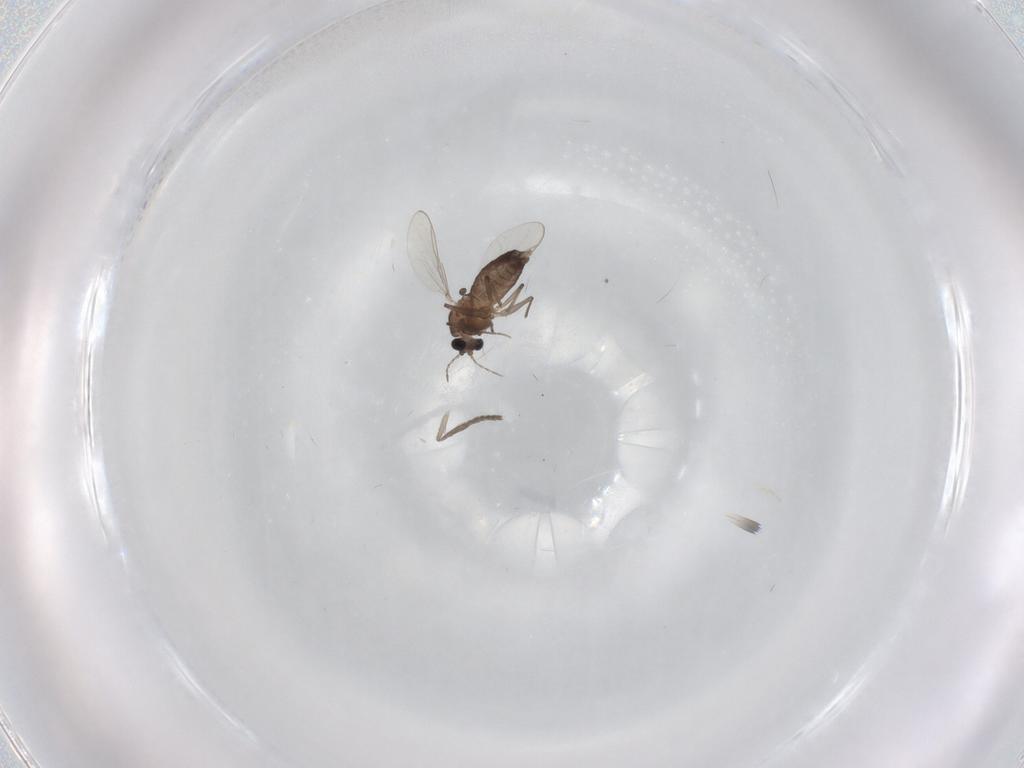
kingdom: Animalia
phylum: Arthropoda
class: Insecta
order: Diptera
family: Chironomidae
